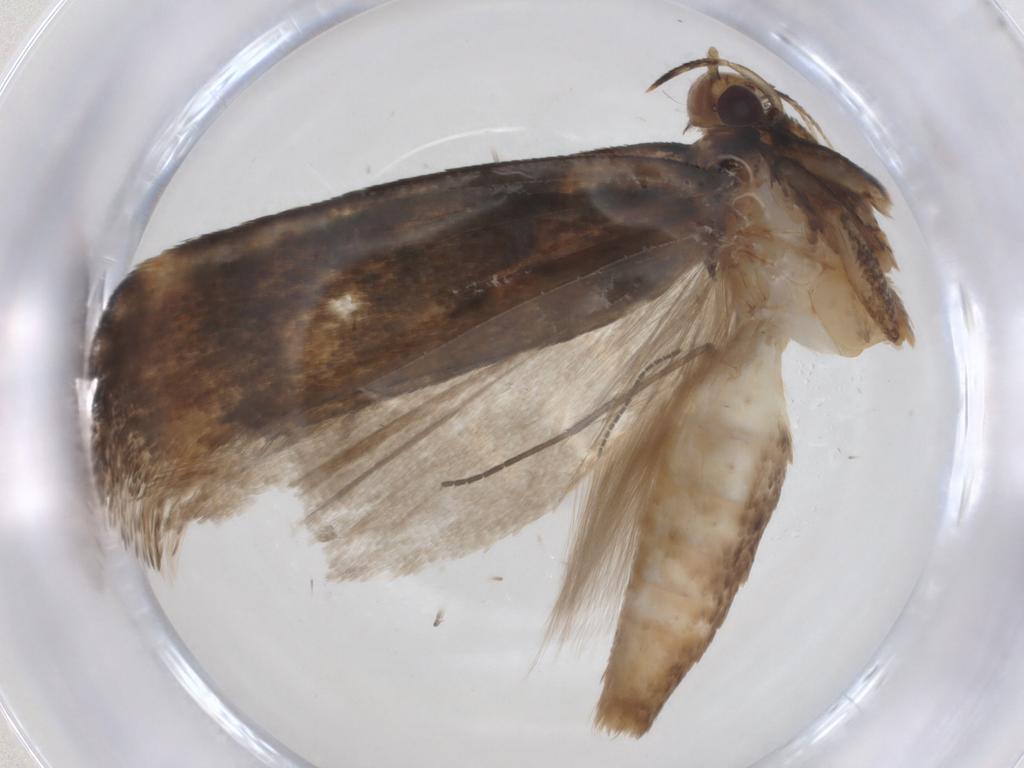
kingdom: Animalia
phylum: Arthropoda
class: Insecta
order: Lepidoptera
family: Gelechiidae
